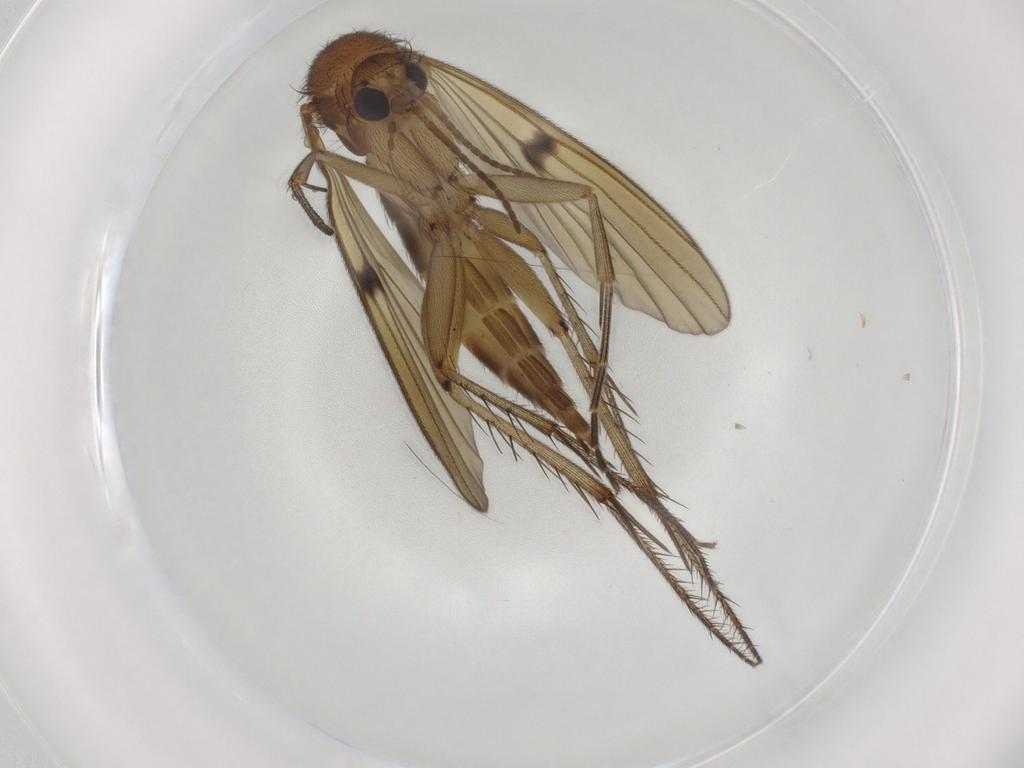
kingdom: Animalia
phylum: Arthropoda
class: Insecta
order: Diptera
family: Mycetophilidae
